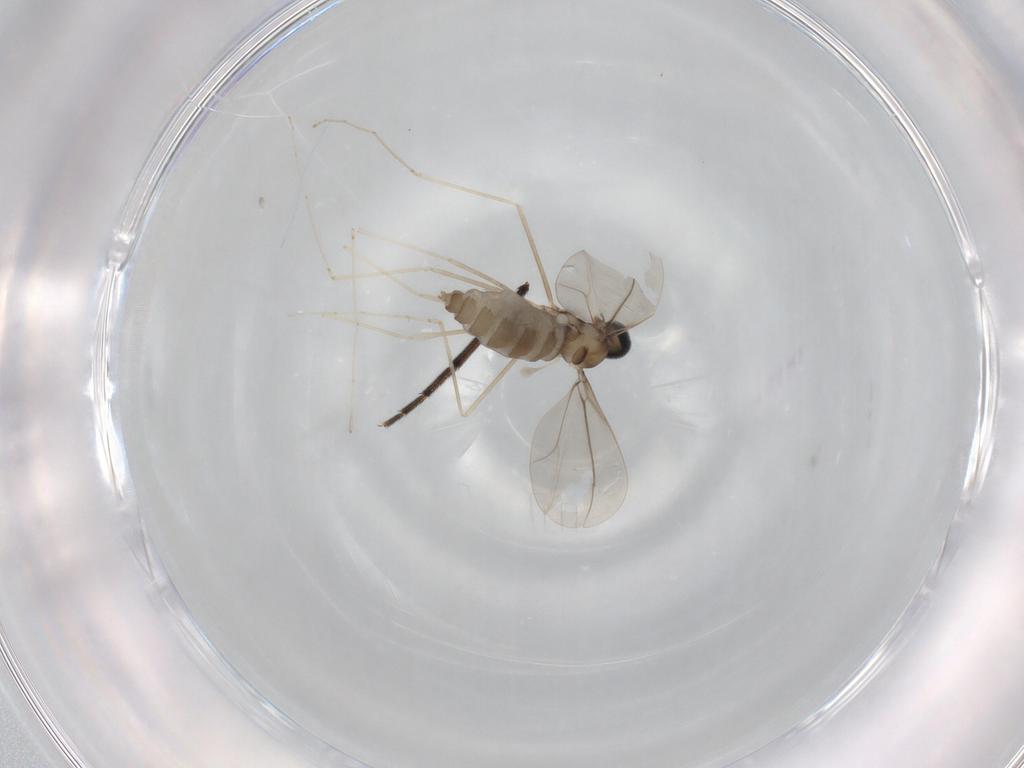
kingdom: Animalia
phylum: Arthropoda
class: Insecta
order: Diptera
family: Cecidomyiidae
